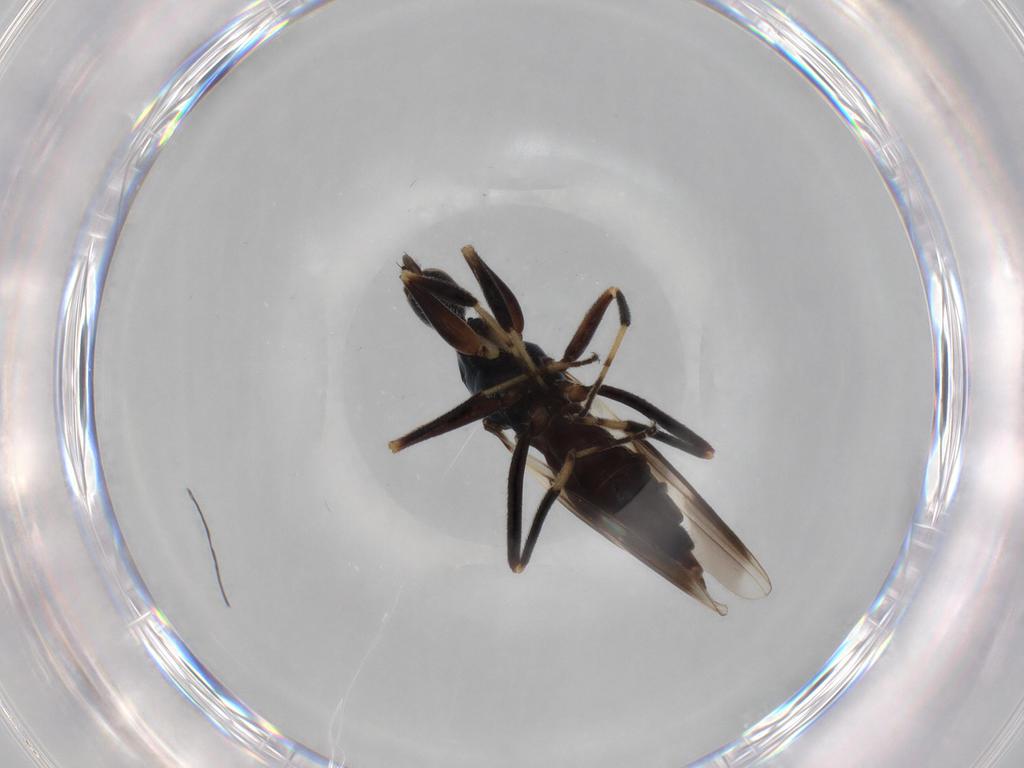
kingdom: Animalia
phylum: Arthropoda
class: Insecta
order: Diptera
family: Hybotidae
